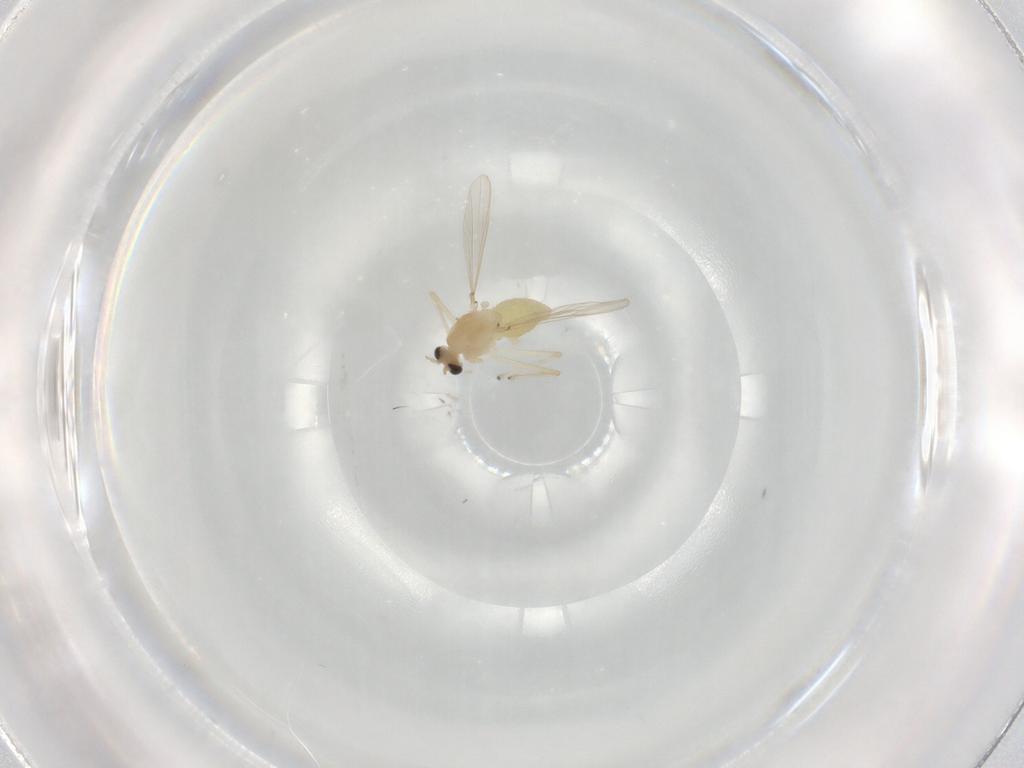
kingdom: Animalia
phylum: Arthropoda
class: Insecta
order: Diptera
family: Chironomidae
